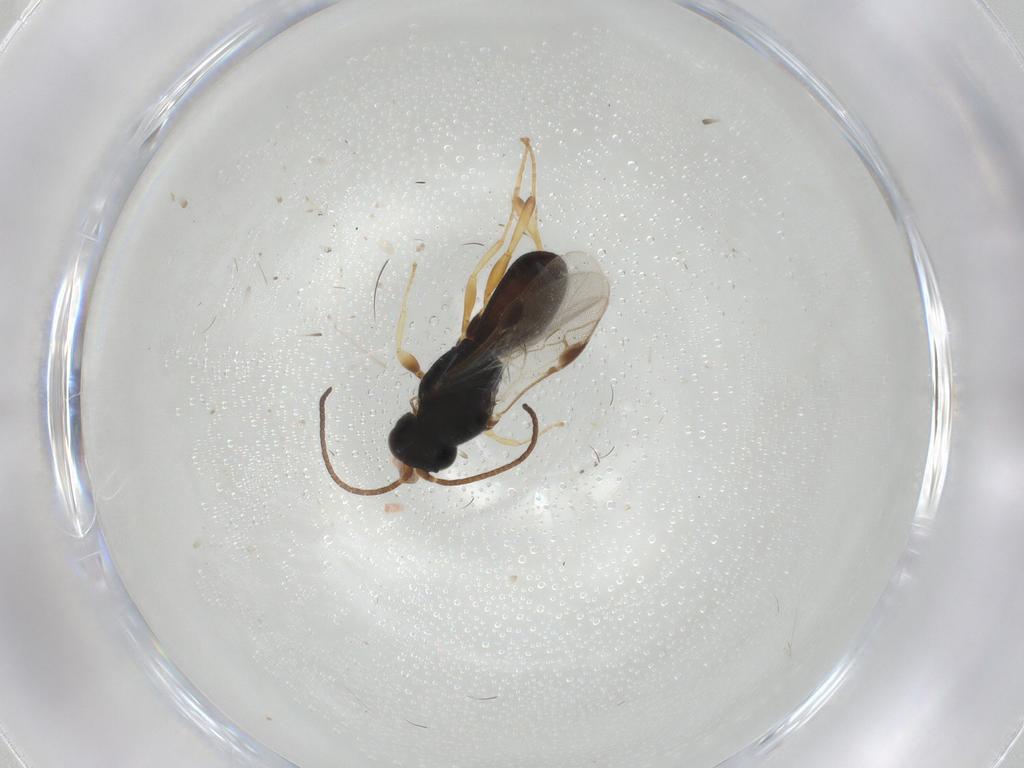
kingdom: Animalia
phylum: Arthropoda
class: Insecta
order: Hymenoptera
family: Braconidae
